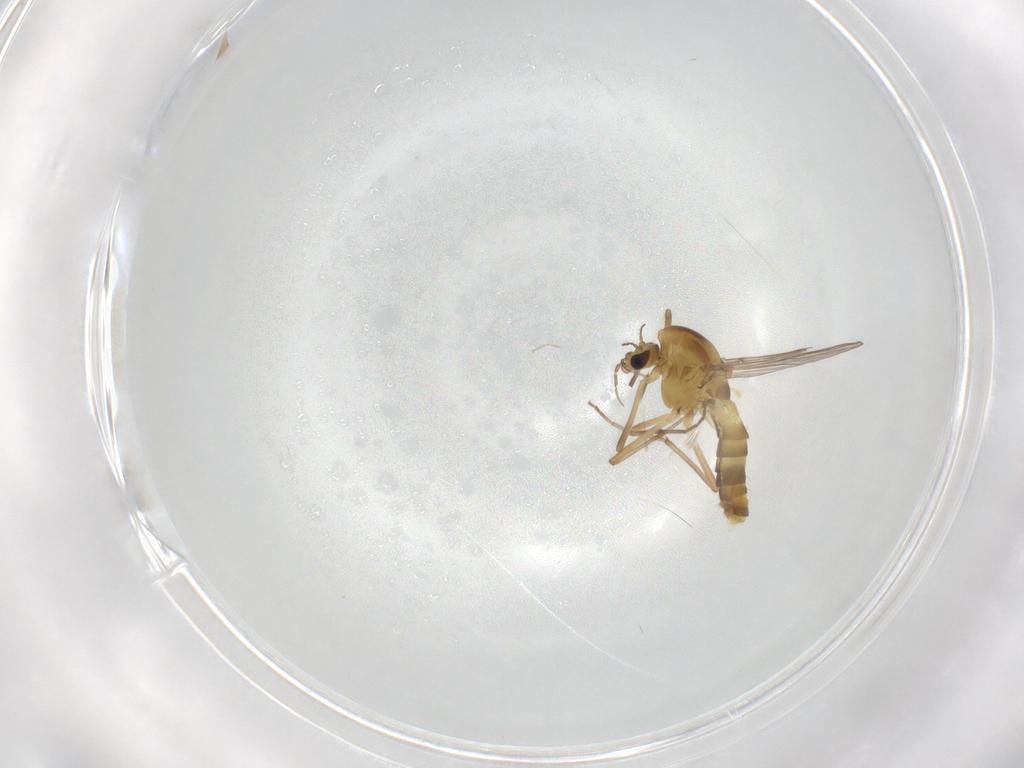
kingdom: Animalia
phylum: Arthropoda
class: Insecta
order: Diptera
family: Chironomidae
